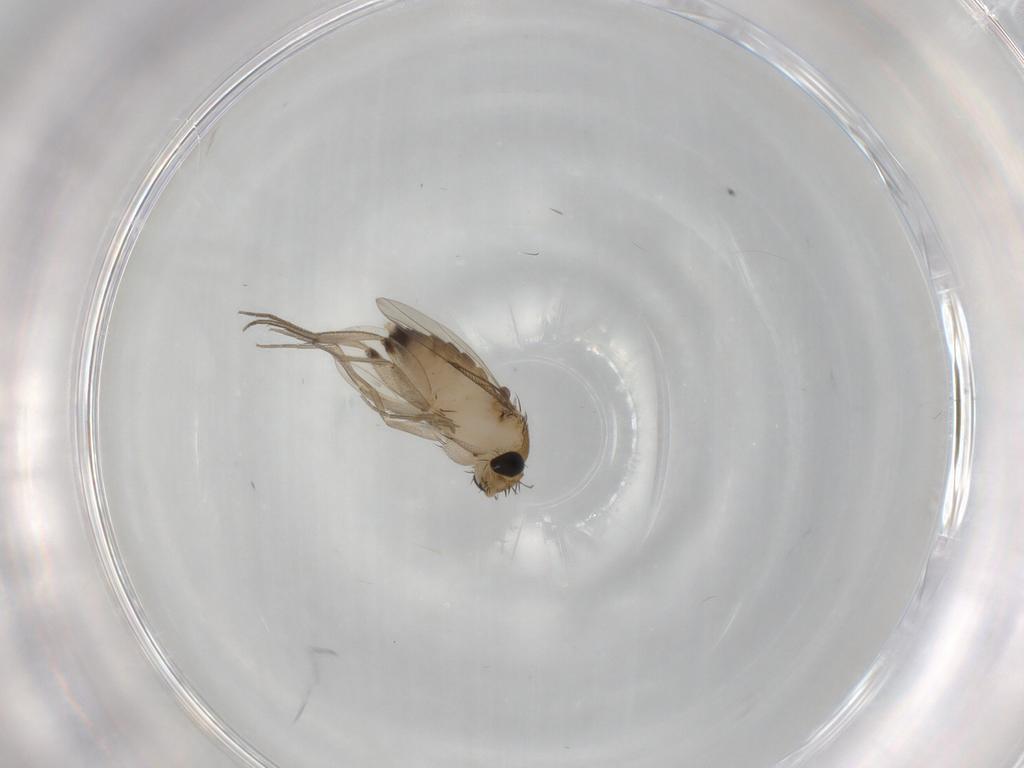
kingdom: Animalia
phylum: Arthropoda
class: Insecta
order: Diptera
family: Phoridae
